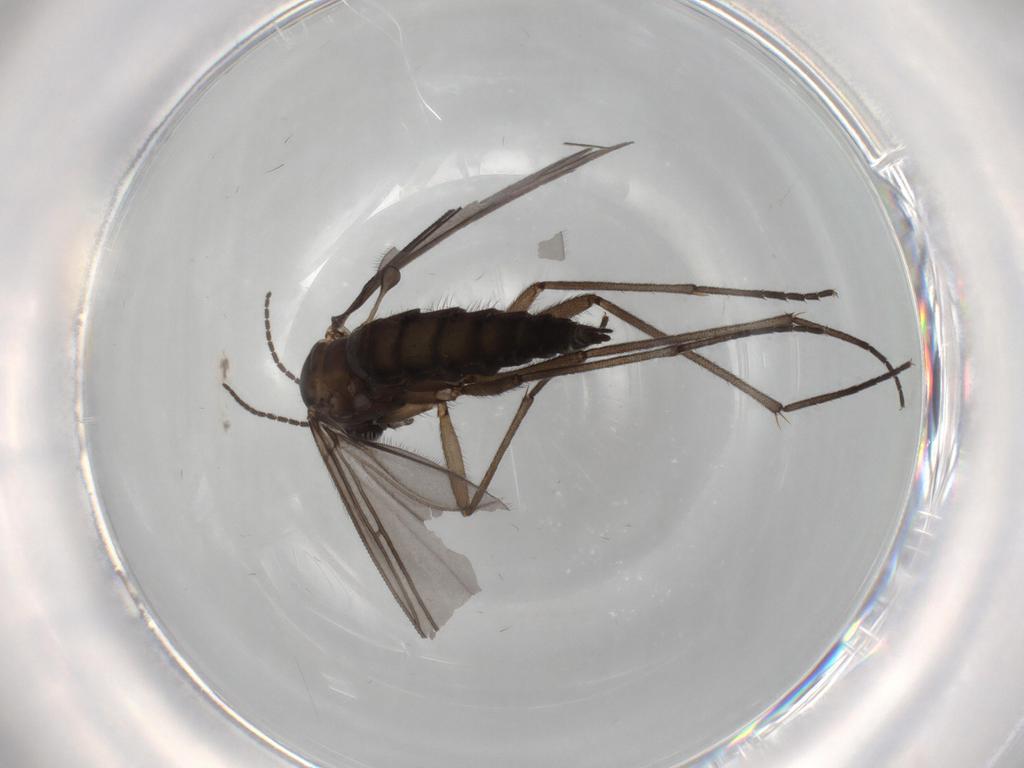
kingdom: Animalia
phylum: Arthropoda
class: Insecta
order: Diptera
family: Sciaridae
